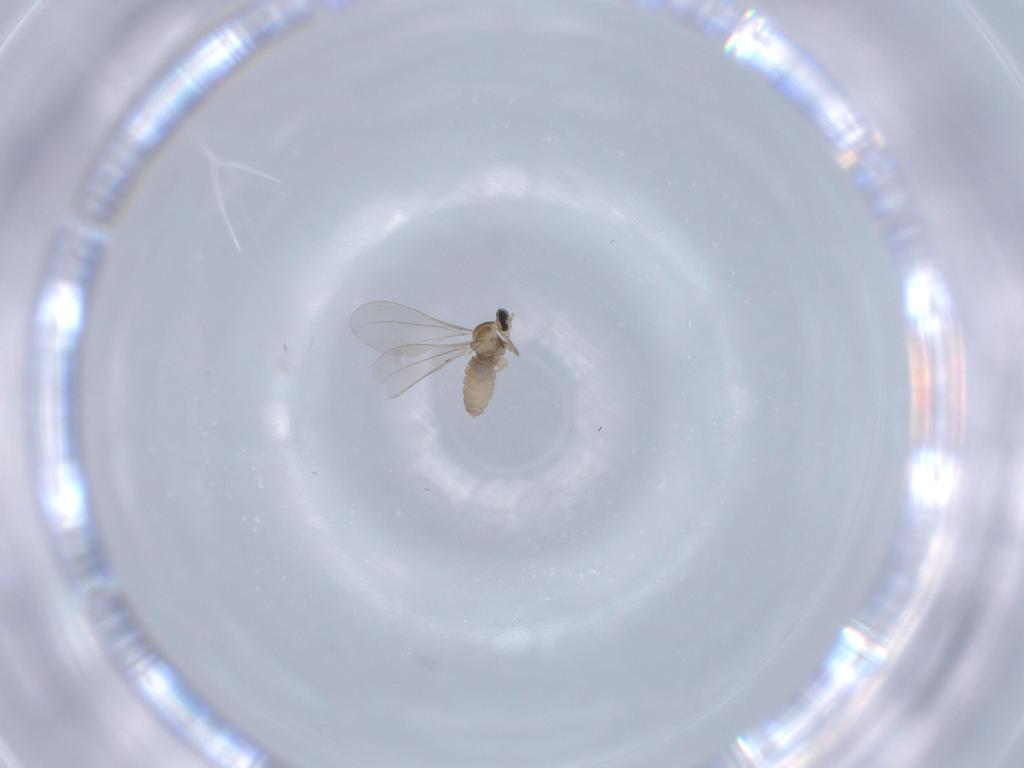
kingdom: Animalia
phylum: Arthropoda
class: Insecta
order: Diptera
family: Cecidomyiidae
